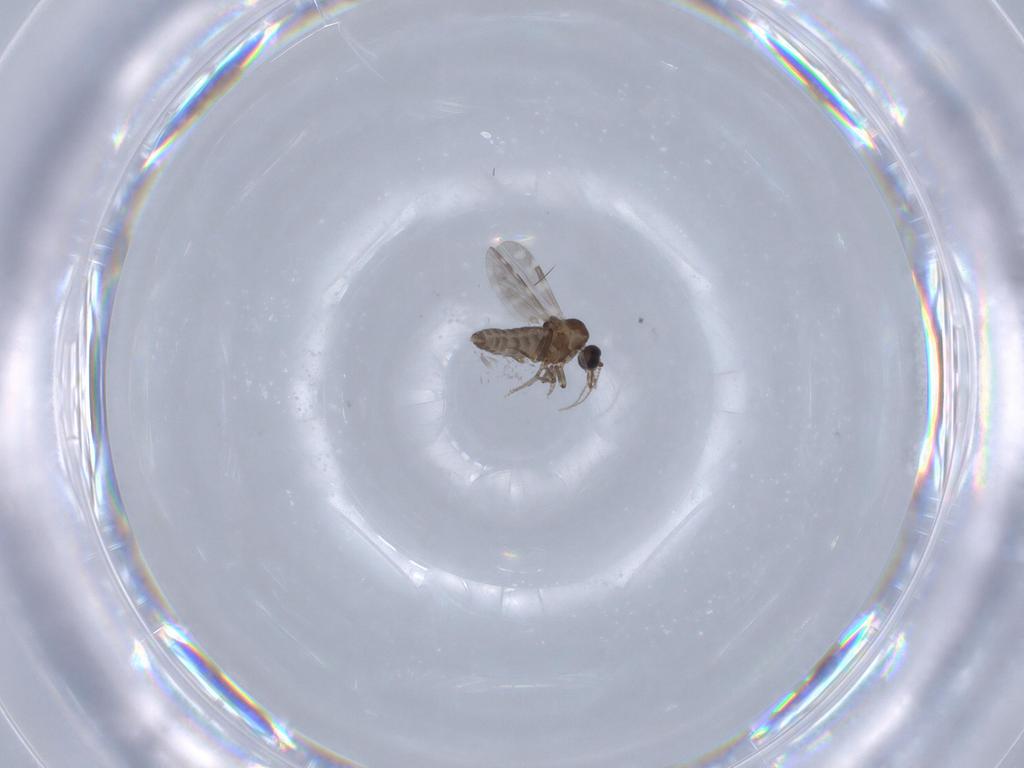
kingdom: Animalia
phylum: Arthropoda
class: Insecta
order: Diptera
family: Ceratopogonidae
